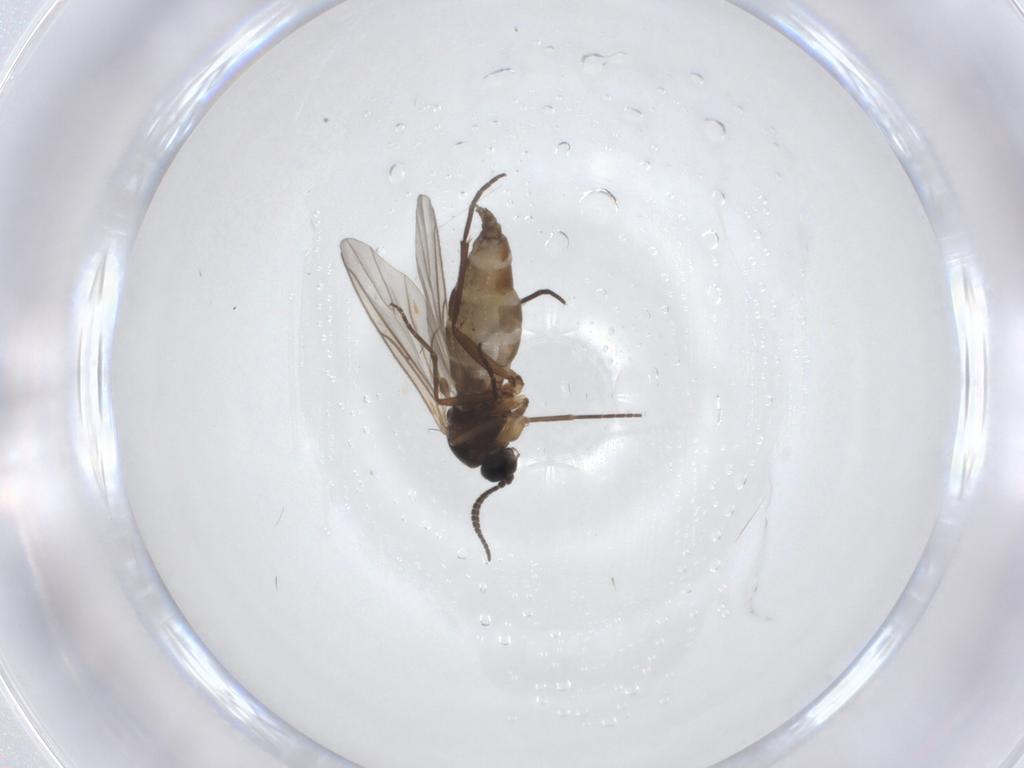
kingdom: Animalia
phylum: Arthropoda
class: Insecta
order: Diptera
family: Sciaridae
